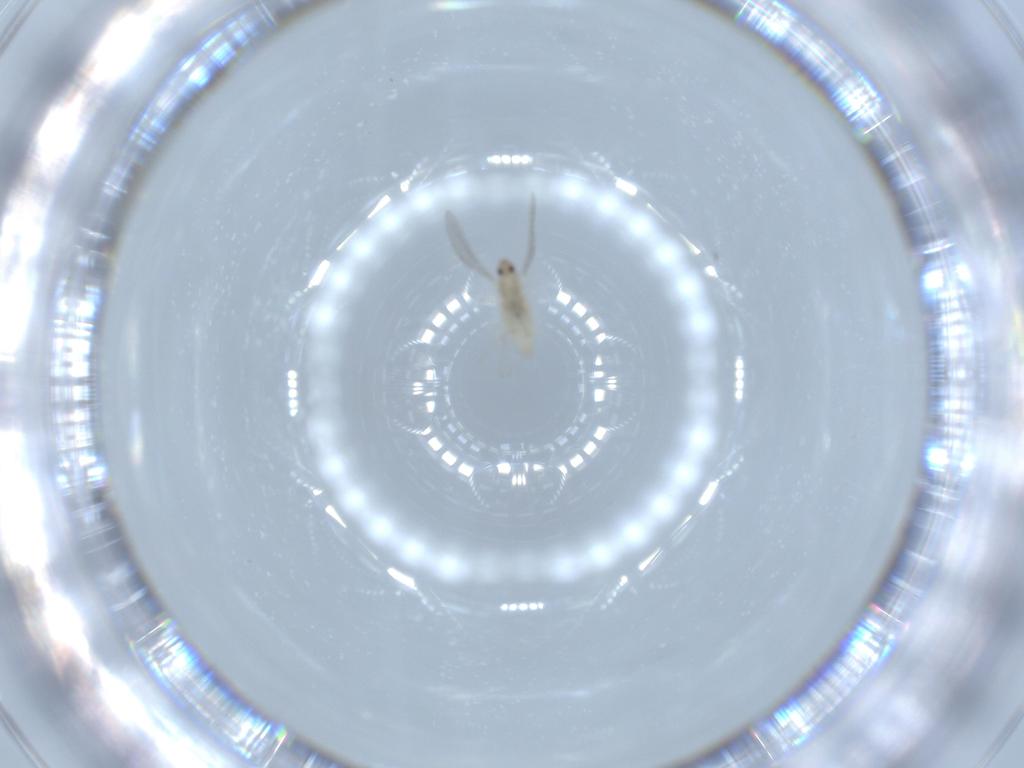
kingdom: Animalia
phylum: Arthropoda
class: Insecta
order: Diptera
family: Cecidomyiidae
